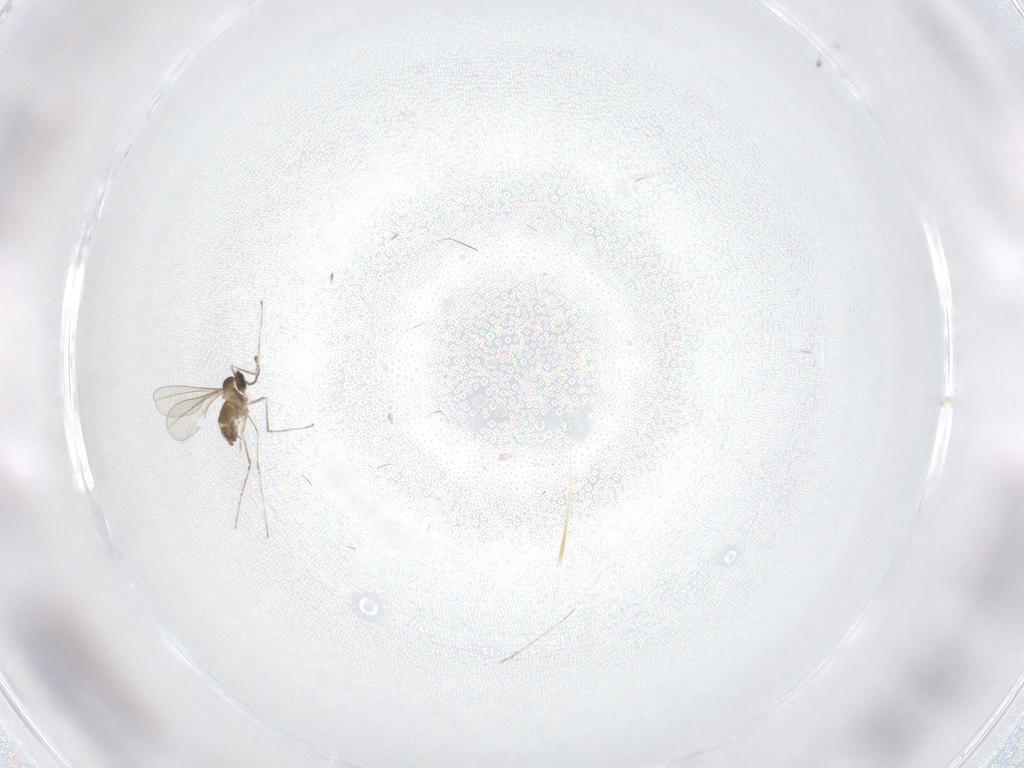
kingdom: Animalia
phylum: Arthropoda
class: Insecta
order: Diptera
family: Cecidomyiidae
